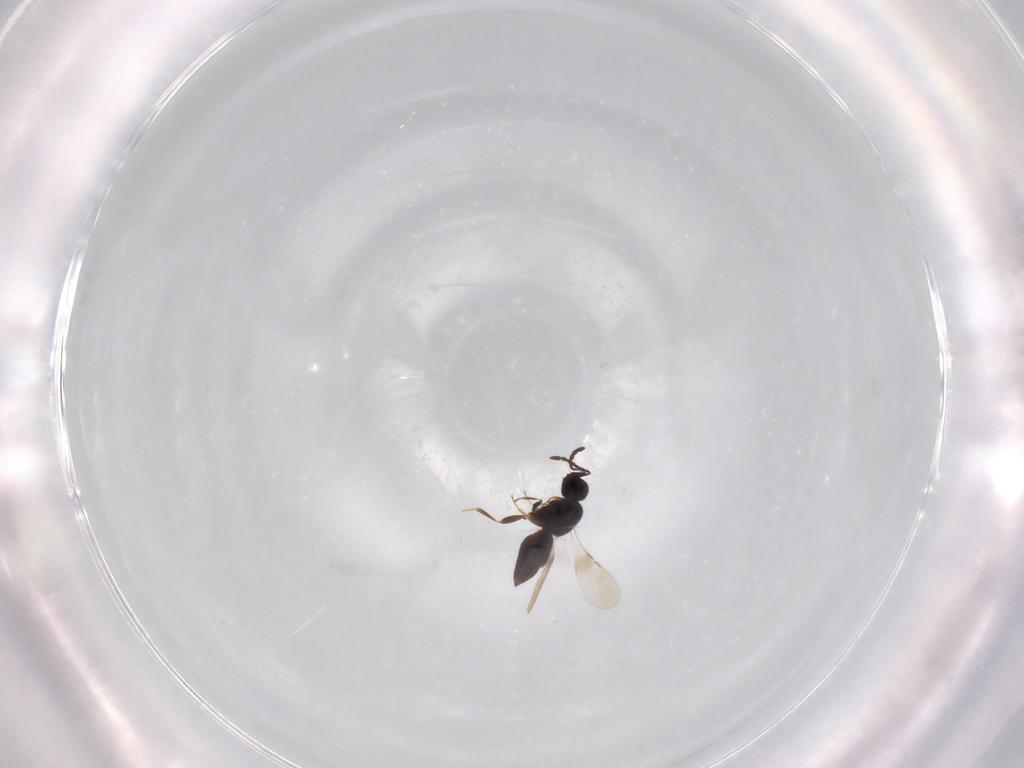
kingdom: Animalia
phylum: Arthropoda
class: Insecta
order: Hymenoptera
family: Ceraphronidae
